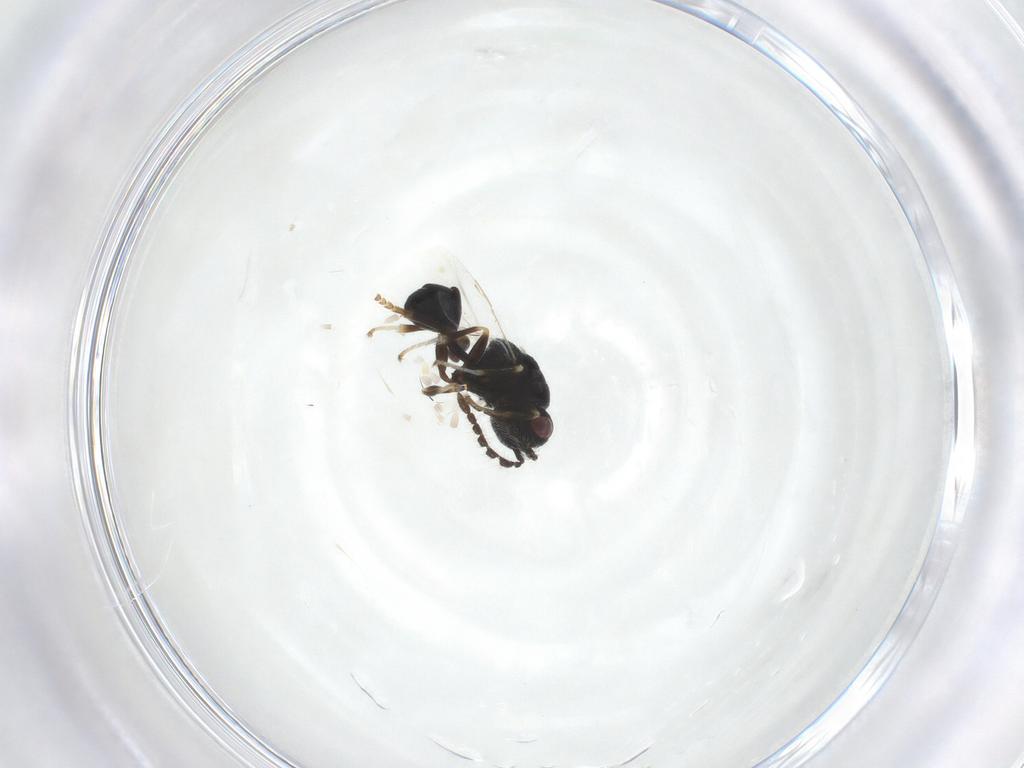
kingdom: Animalia
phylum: Arthropoda
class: Insecta
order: Hymenoptera
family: Eurytomidae
